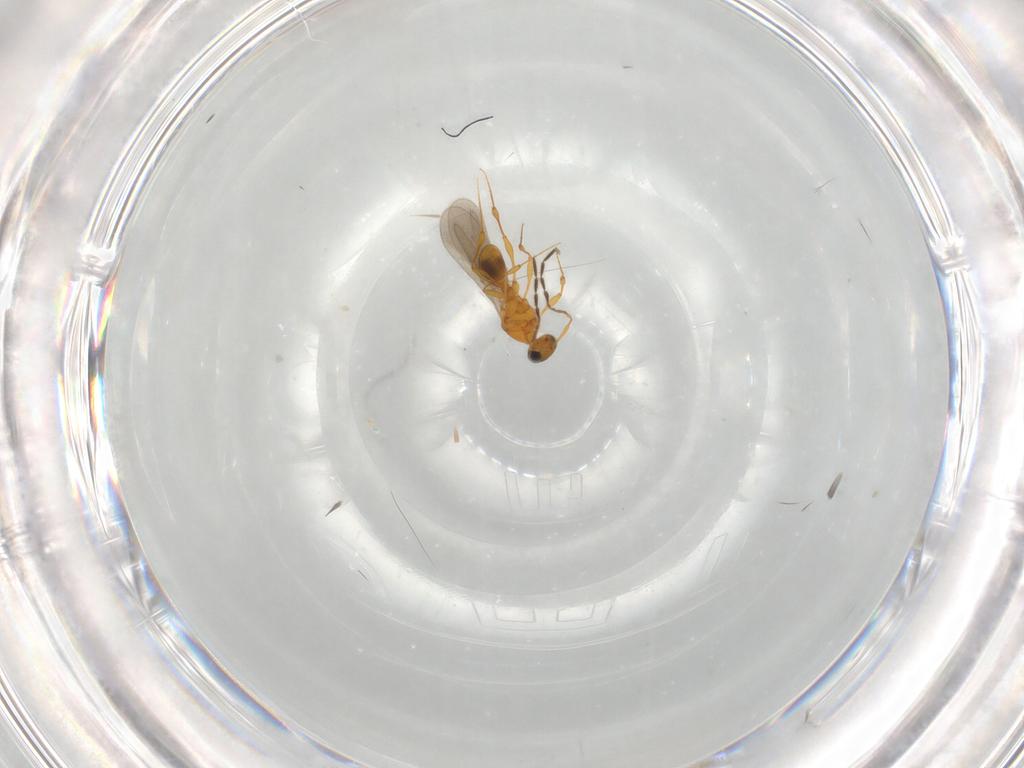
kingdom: Animalia
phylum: Arthropoda
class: Insecta
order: Hymenoptera
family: Platygastridae
